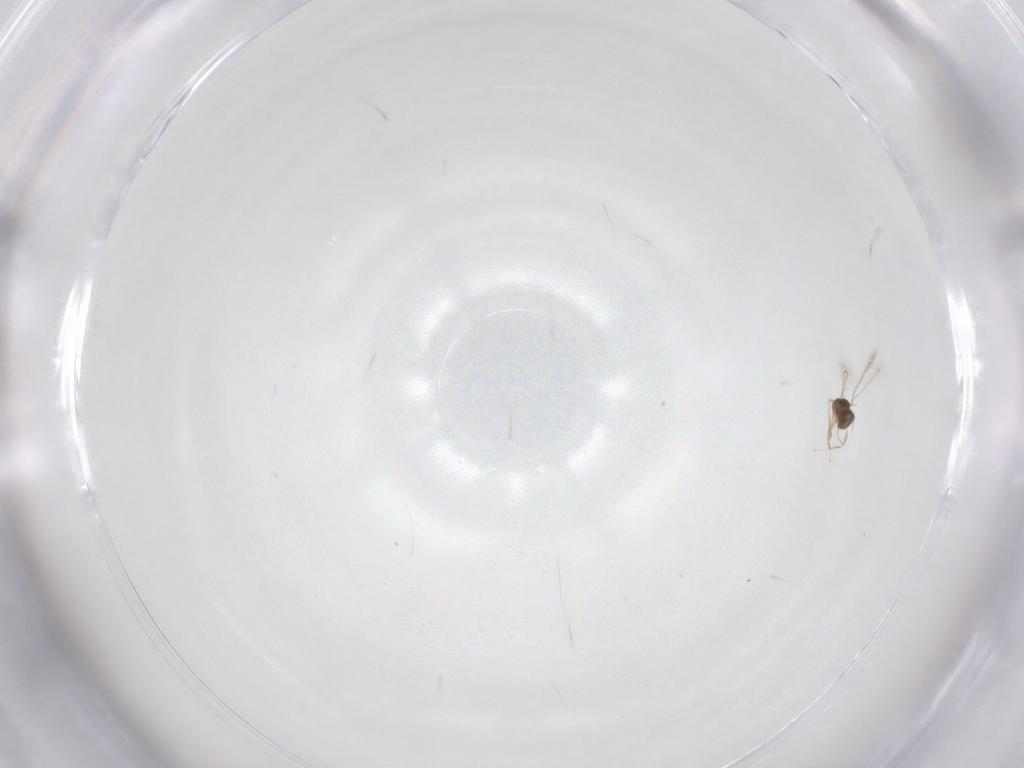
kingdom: Animalia
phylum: Arthropoda
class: Insecta
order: Hymenoptera
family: Mymaridae
